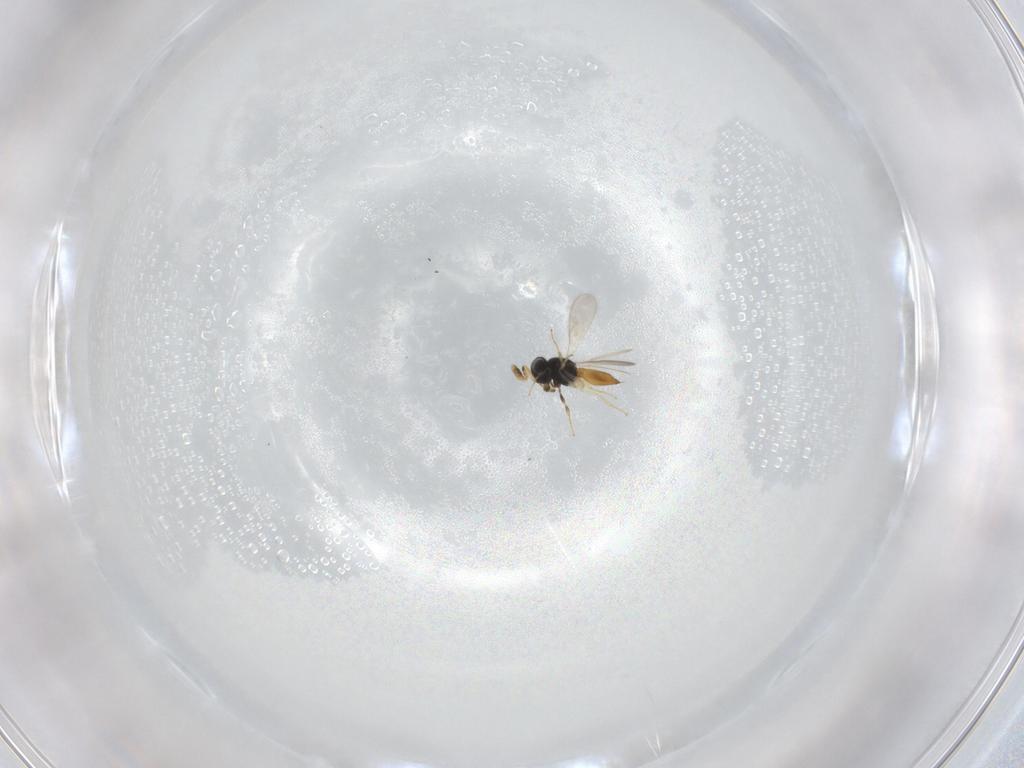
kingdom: Animalia
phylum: Arthropoda
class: Insecta
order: Hymenoptera
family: Scelionidae
